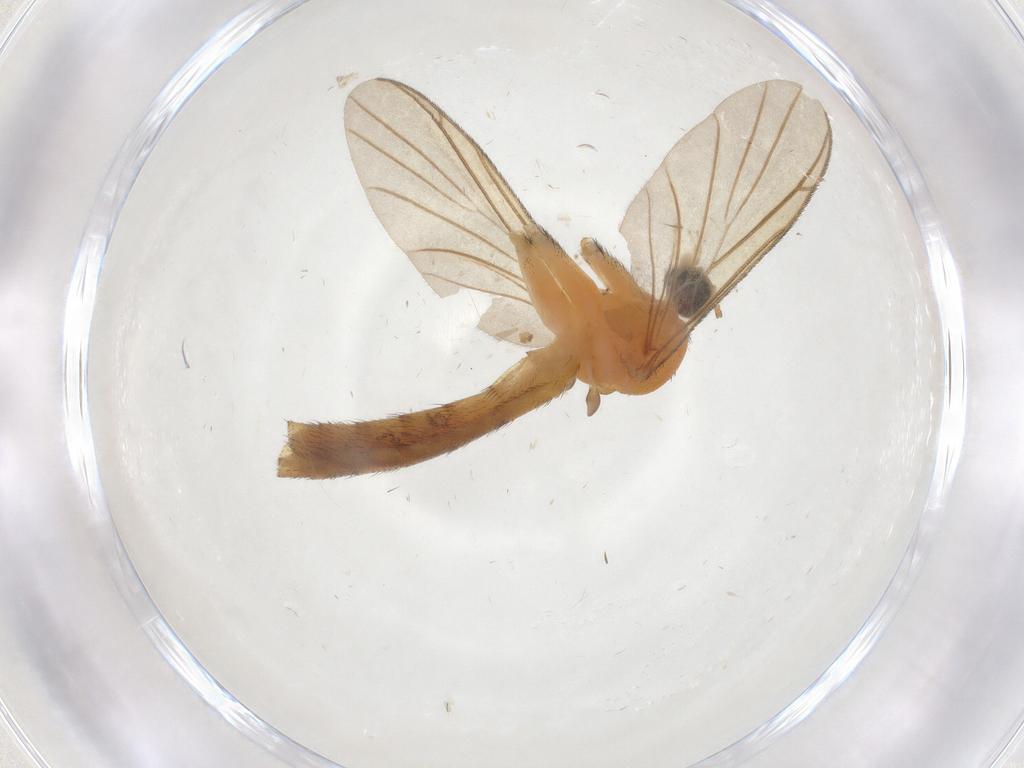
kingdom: Animalia
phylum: Arthropoda
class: Insecta
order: Diptera
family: Keroplatidae
